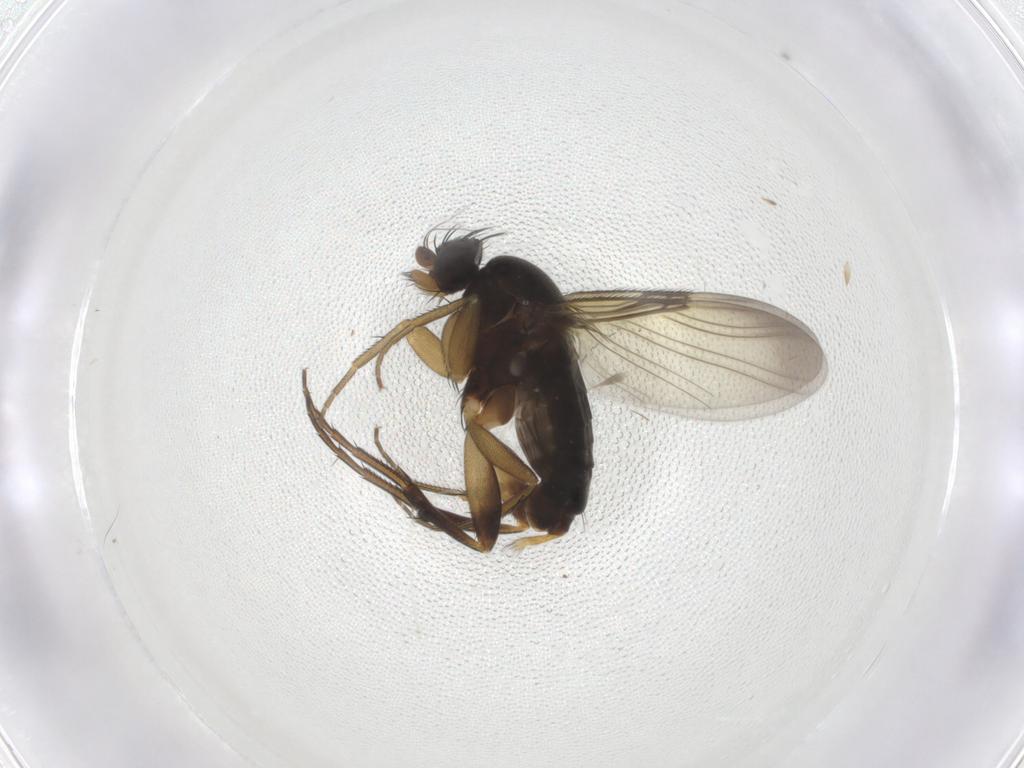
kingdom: Animalia
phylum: Arthropoda
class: Insecta
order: Diptera
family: Phoridae
